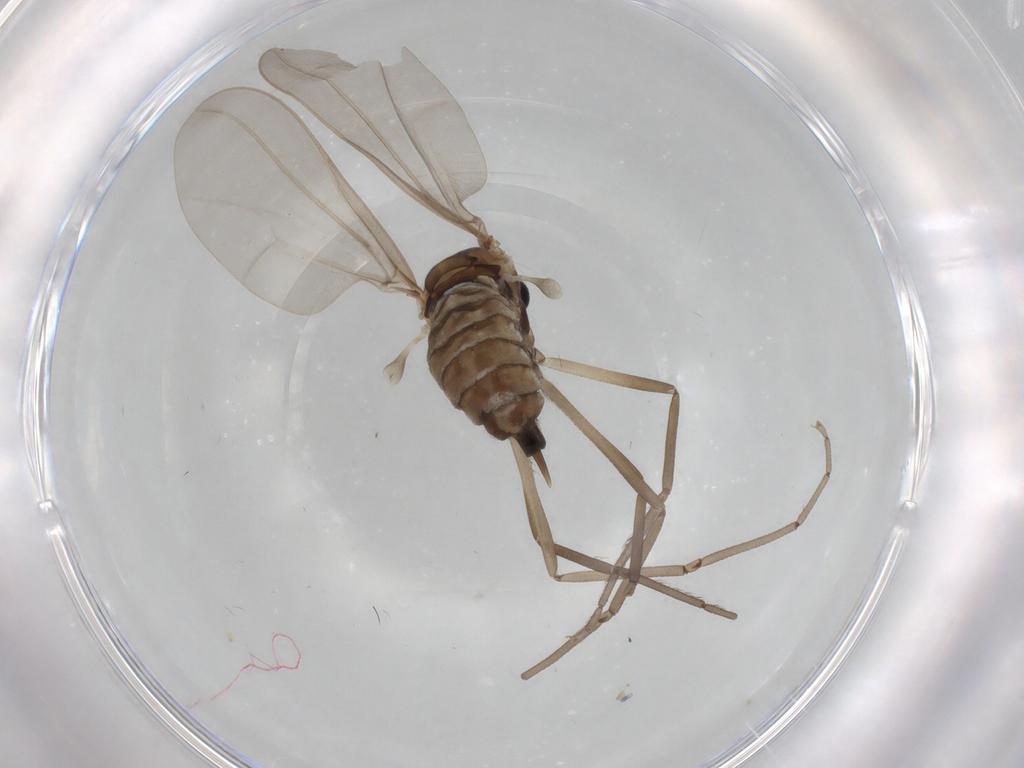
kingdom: Animalia
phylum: Arthropoda
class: Insecta
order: Diptera
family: Cecidomyiidae
